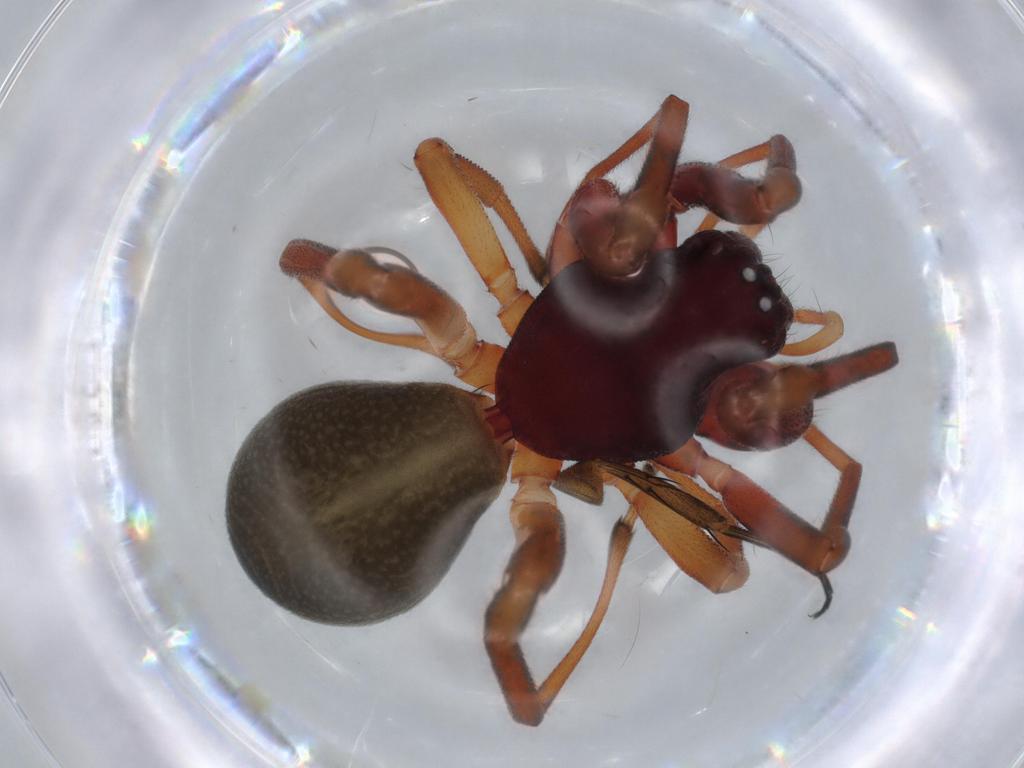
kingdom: Animalia
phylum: Arthropoda
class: Arachnida
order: Araneae
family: Trachelidae
